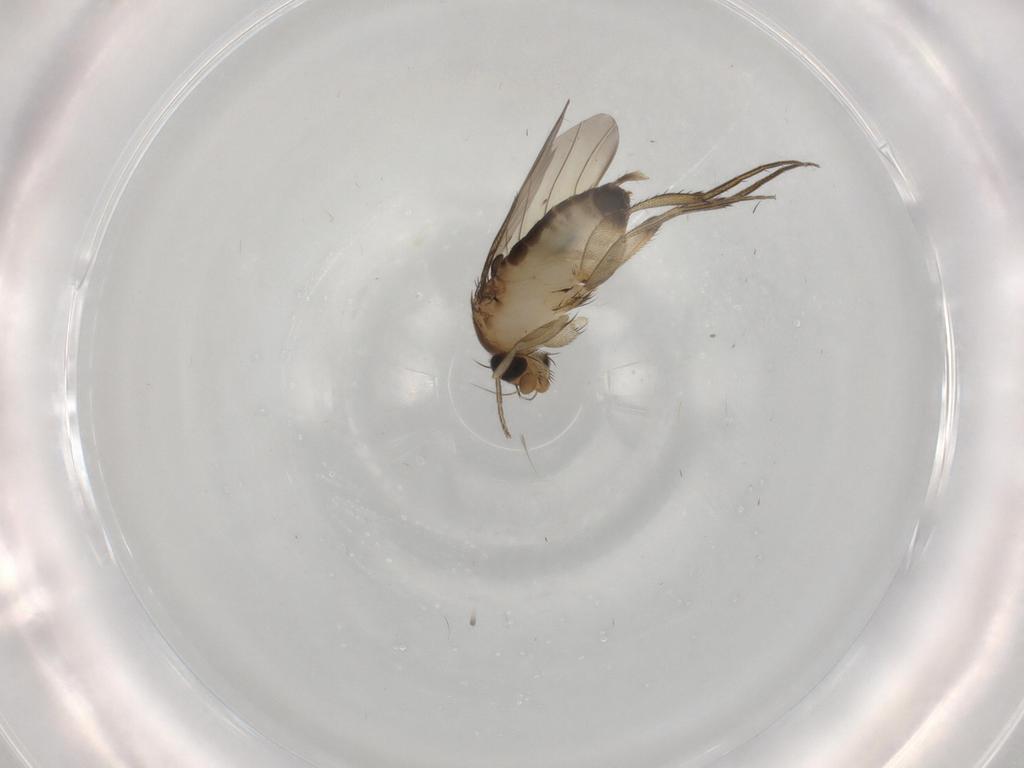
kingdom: Animalia
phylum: Arthropoda
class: Insecta
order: Diptera
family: Phoridae
